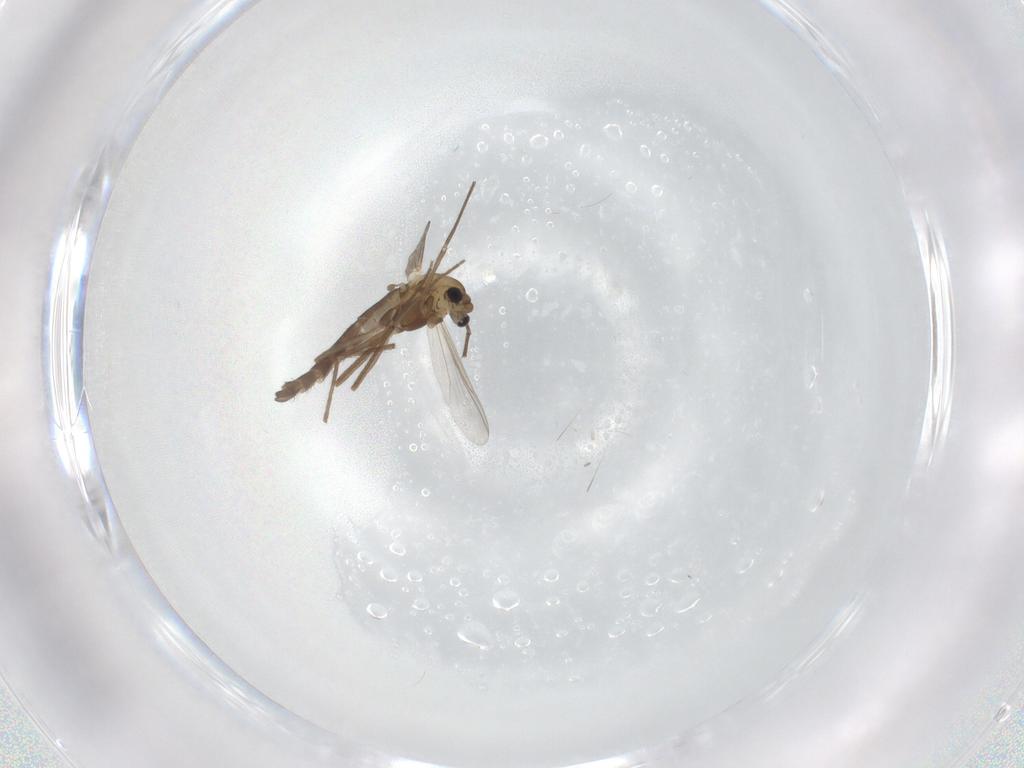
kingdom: Animalia
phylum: Arthropoda
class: Insecta
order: Diptera
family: Chironomidae
